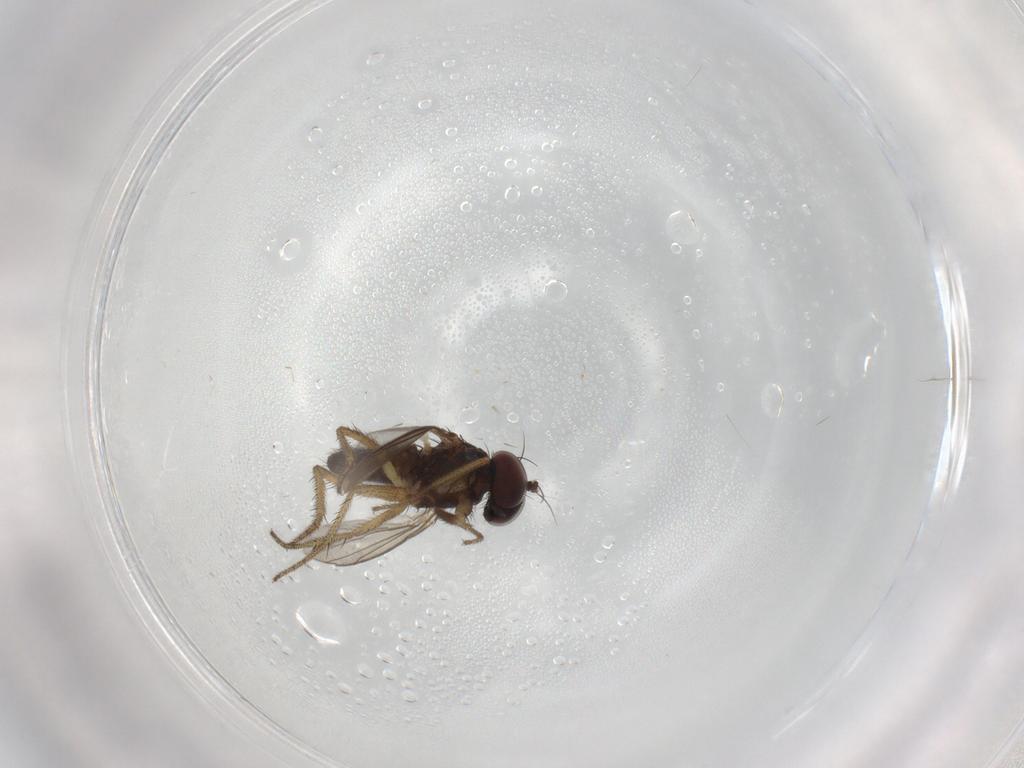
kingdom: Animalia
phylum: Arthropoda
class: Insecta
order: Diptera
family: Dolichopodidae
